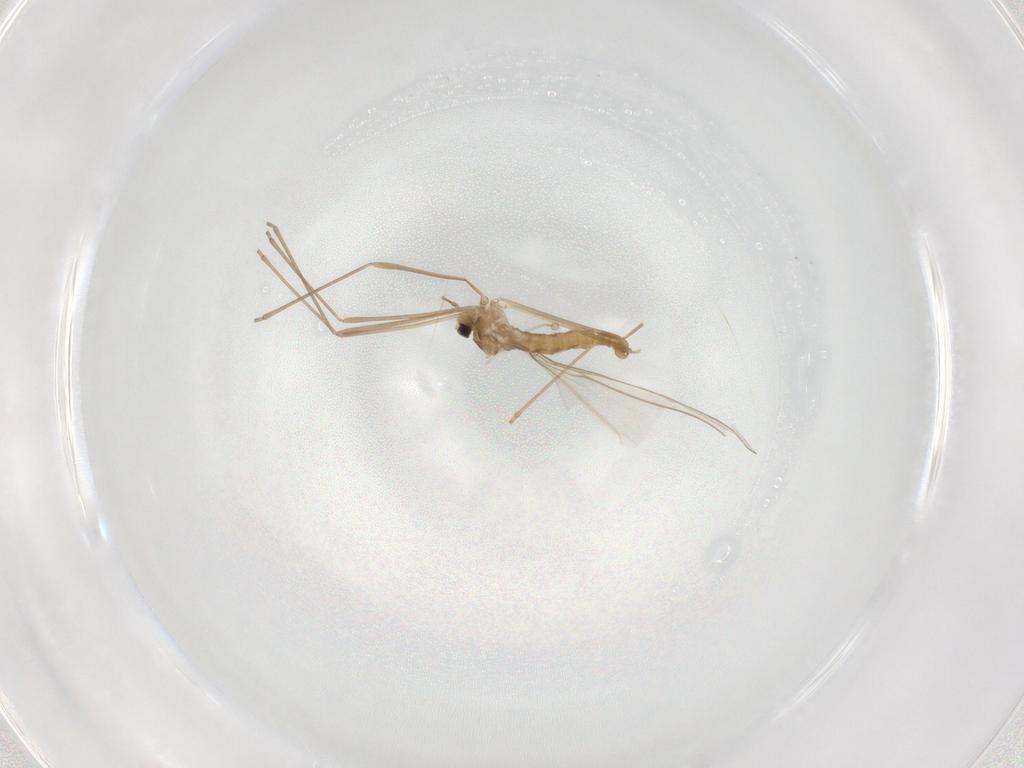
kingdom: Animalia
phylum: Arthropoda
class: Insecta
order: Diptera
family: Cecidomyiidae
